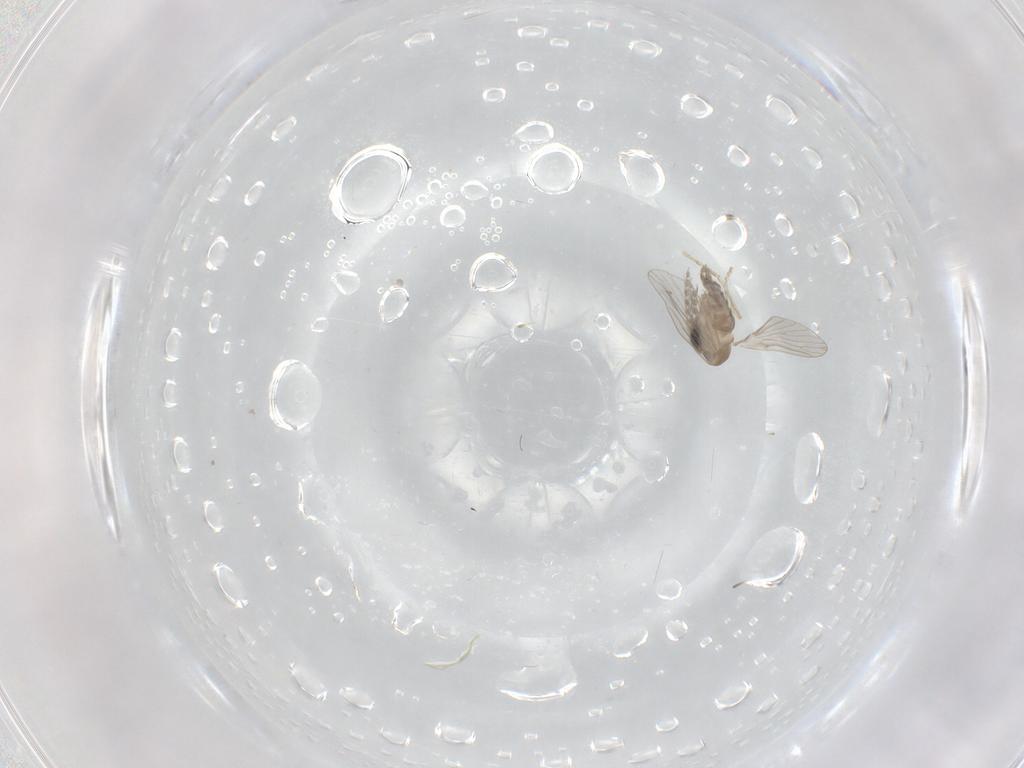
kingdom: Animalia
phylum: Arthropoda
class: Insecta
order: Diptera
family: Cecidomyiidae
